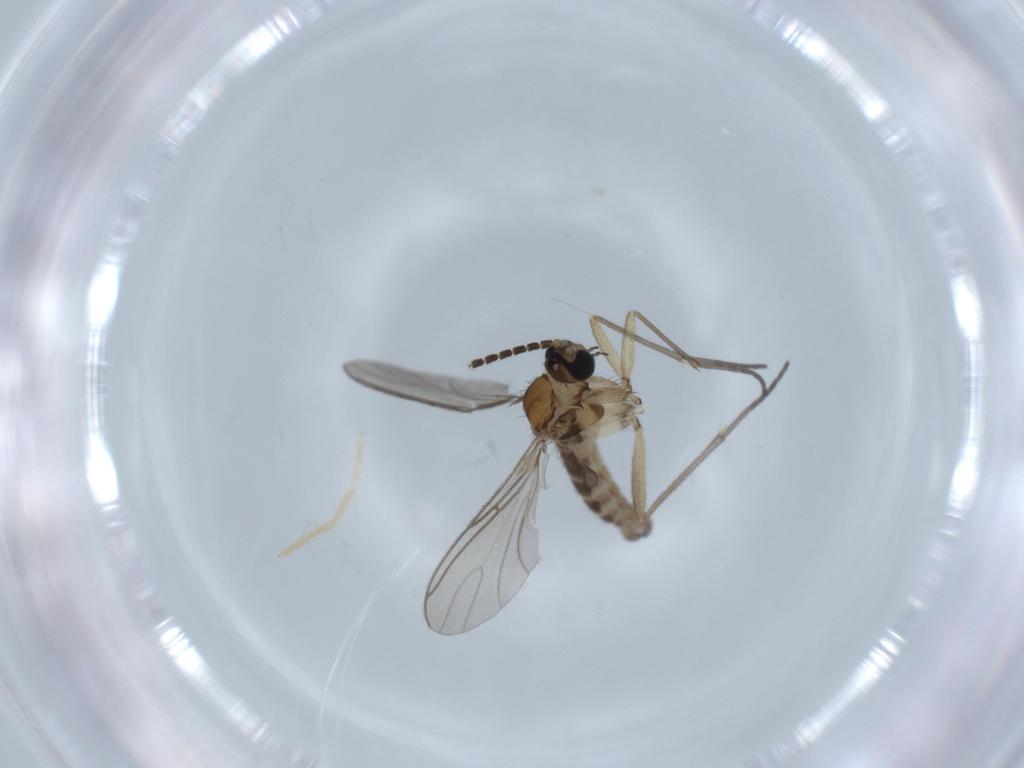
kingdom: Animalia
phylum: Arthropoda
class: Insecta
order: Diptera
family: Sciaridae
